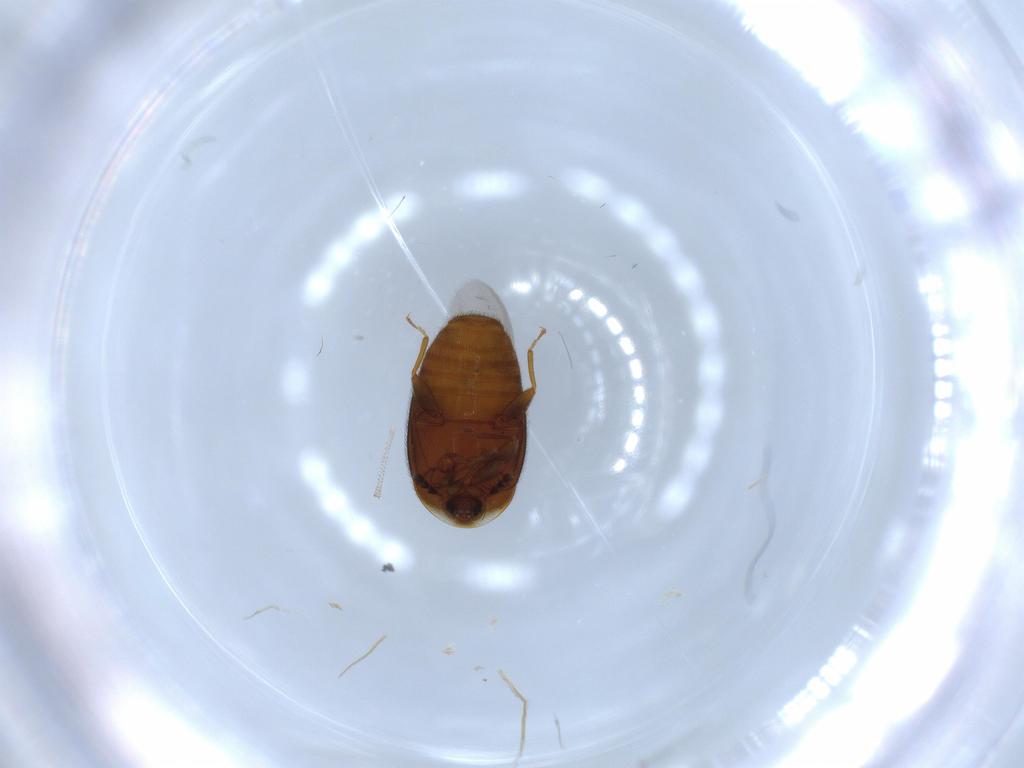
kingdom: Animalia
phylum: Arthropoda
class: Insecta
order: Coleoptera
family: Corylophidae
